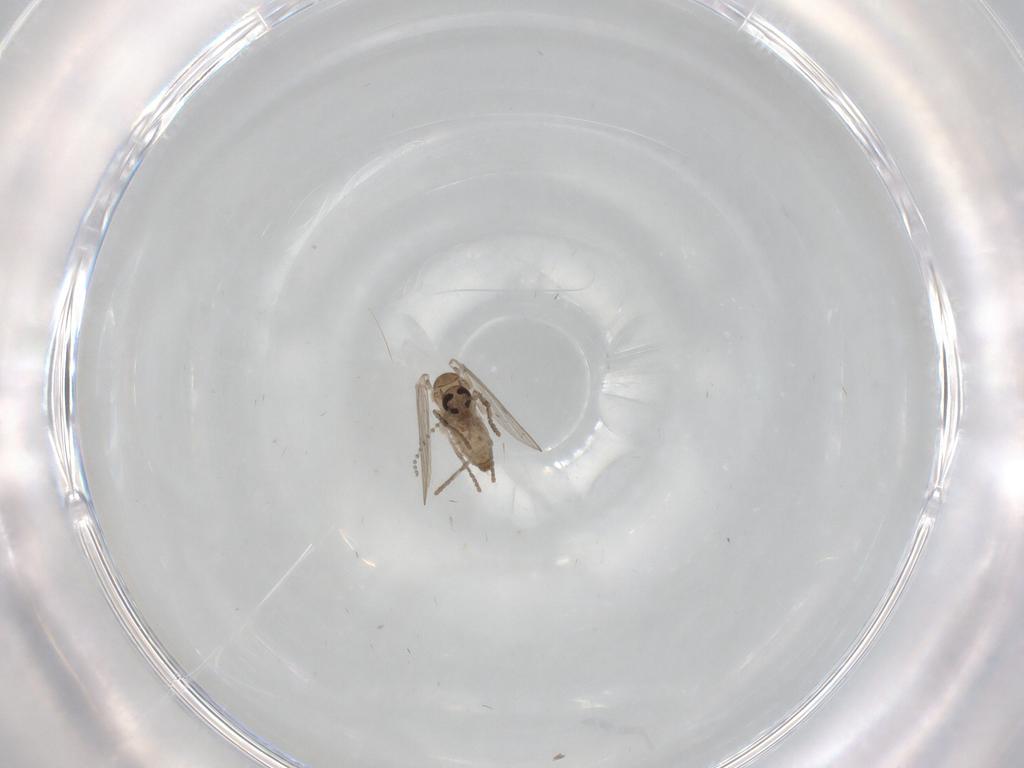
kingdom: Animalia
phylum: Arthropoda
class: Insecta
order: Diptera
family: Psychodidae
